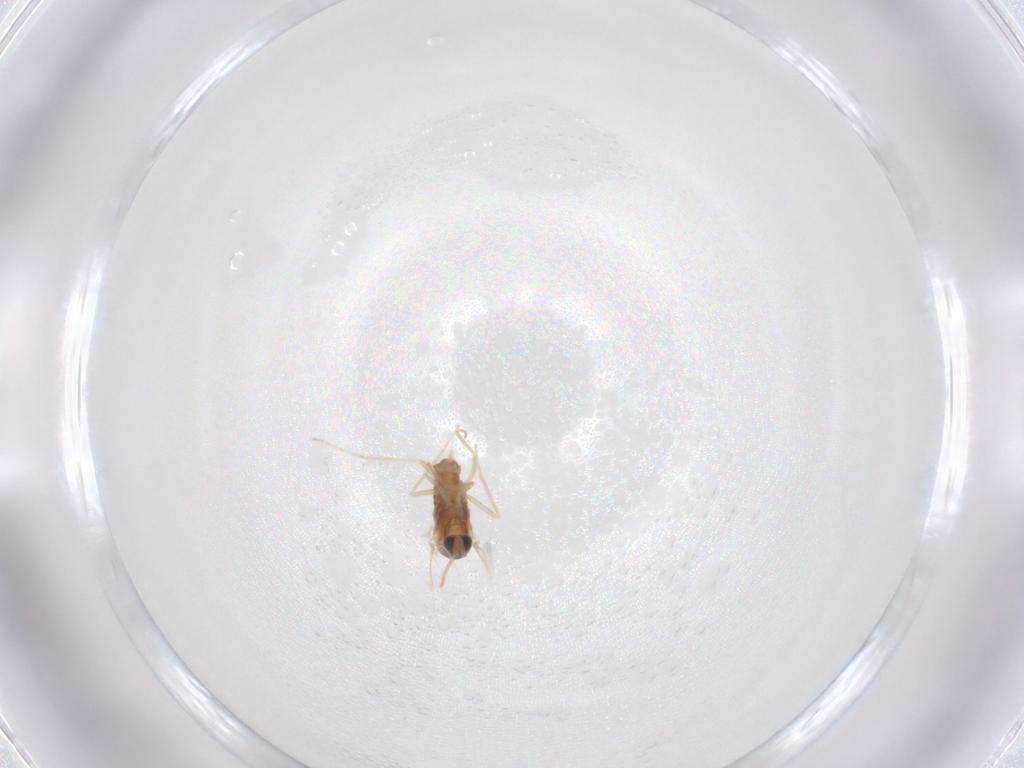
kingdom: Animalia
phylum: Arthropoda
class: Insecta
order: Diptera
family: Cecidomyiidae
